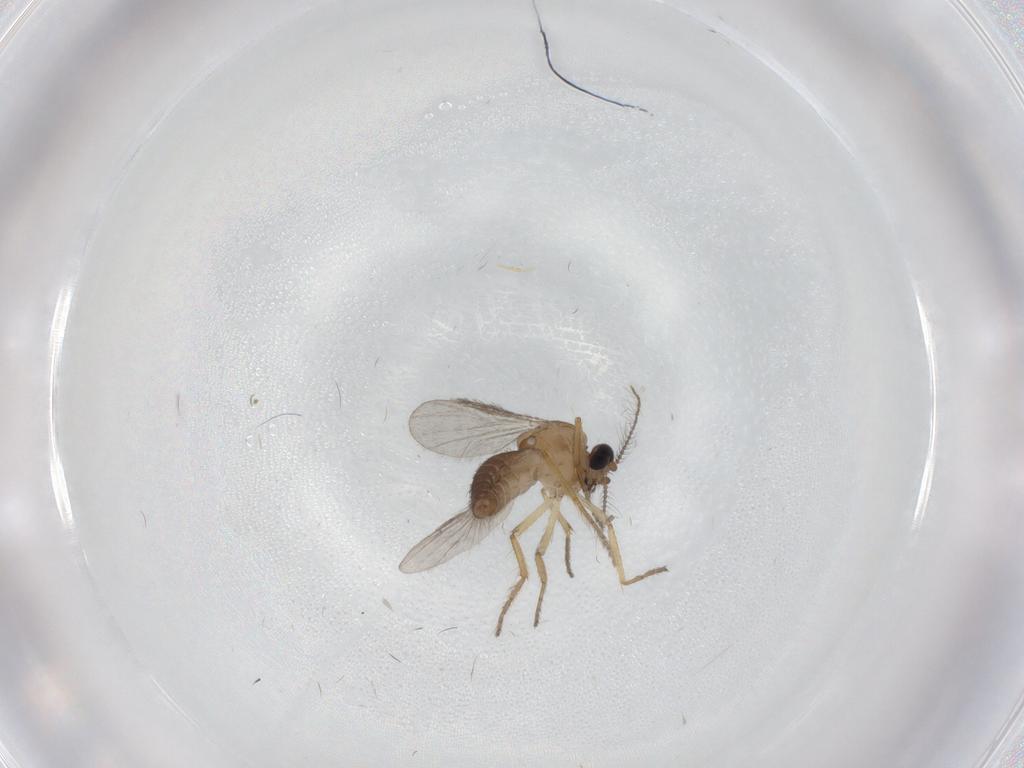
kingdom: Animalia
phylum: Arthropoda
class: Insecta
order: Diptera
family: Ceratopogonidae
